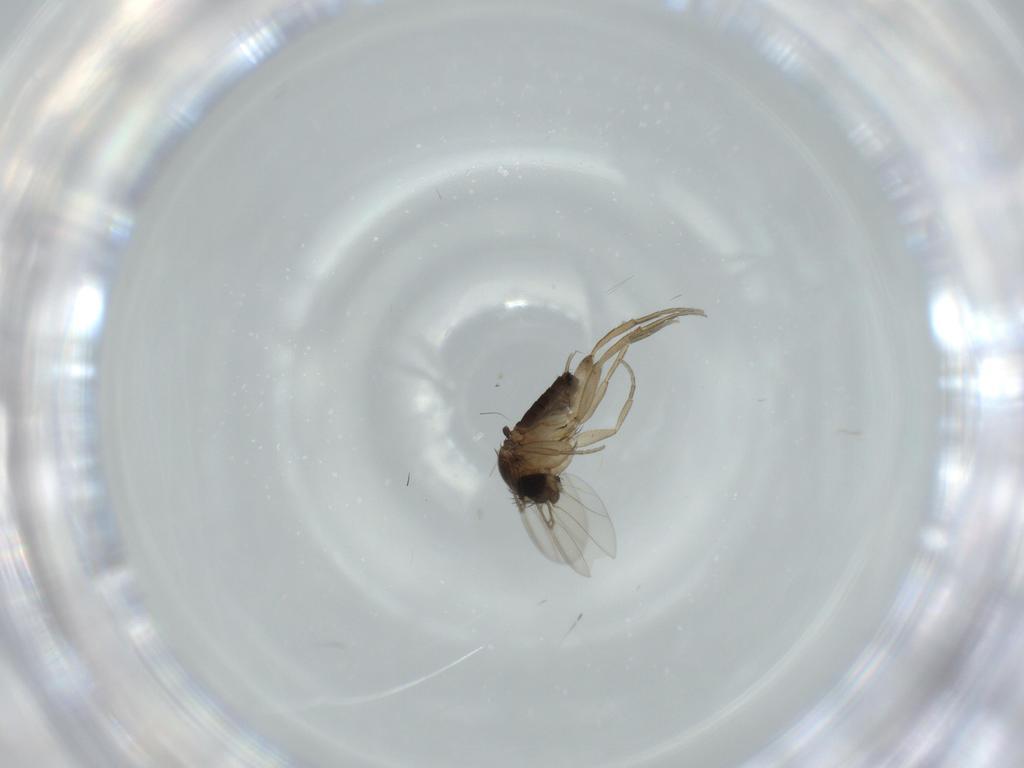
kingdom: Animalia
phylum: Arthropoda
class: Insecta
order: Diptera
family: Phoridae
